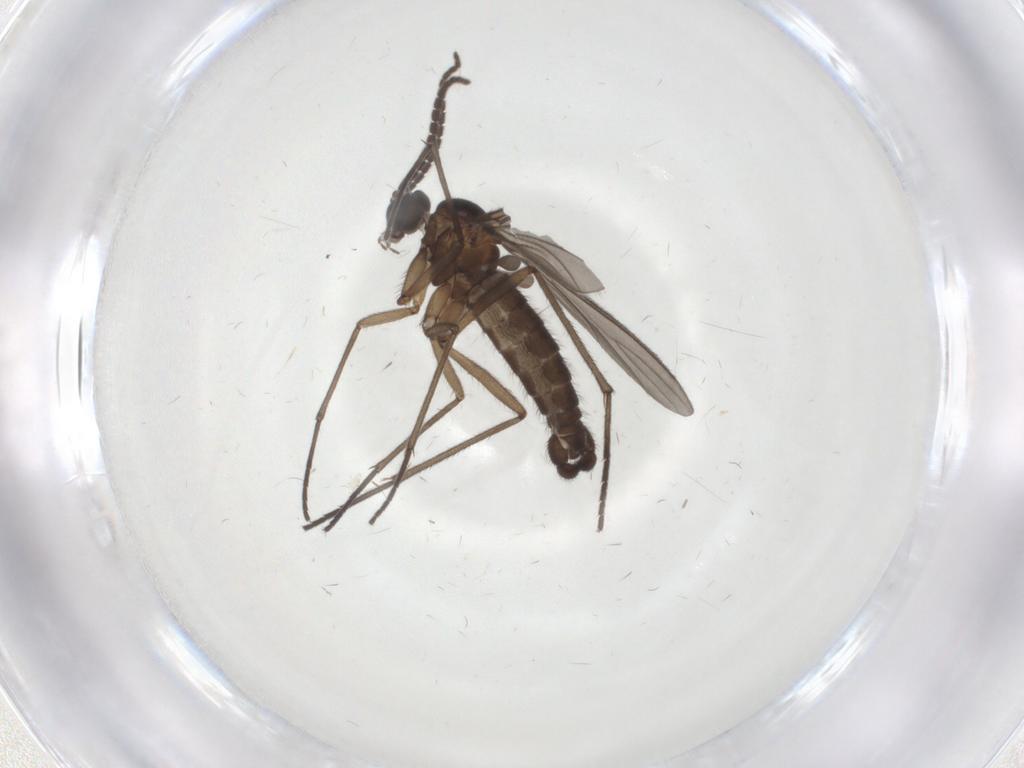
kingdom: Animalia
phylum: Arthropoda
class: Insecta
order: Diptera
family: Sciaridae
